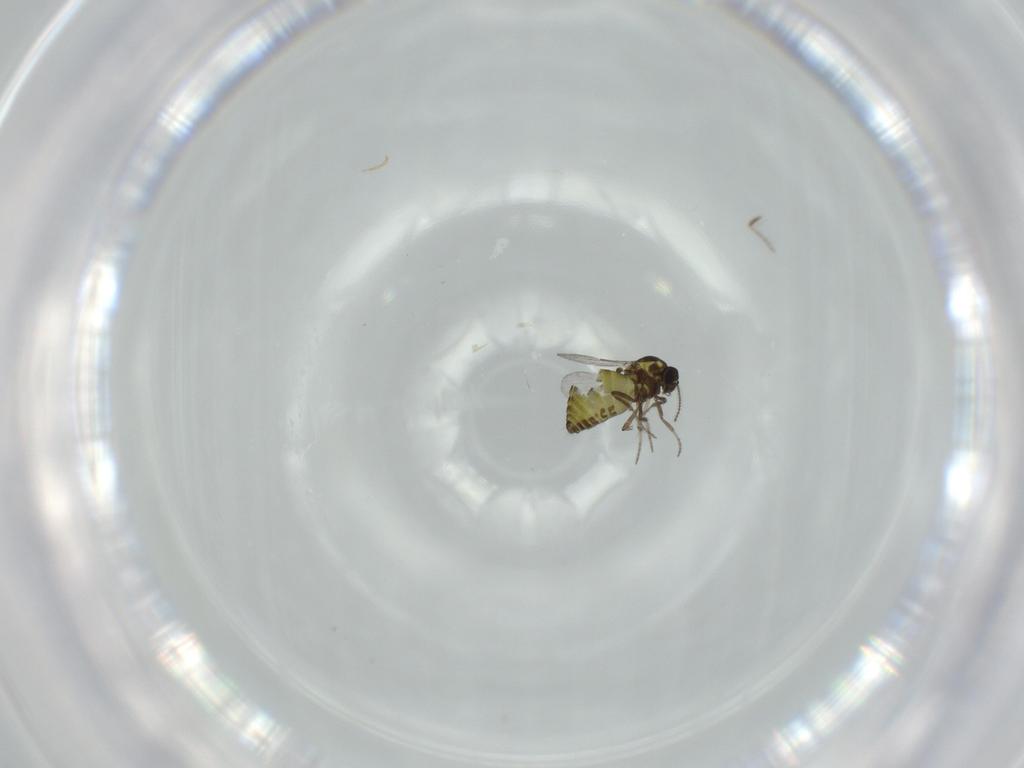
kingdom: Animalia
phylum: Arthropoda
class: Insecta
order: Diptera
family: Ceratopogonidae
